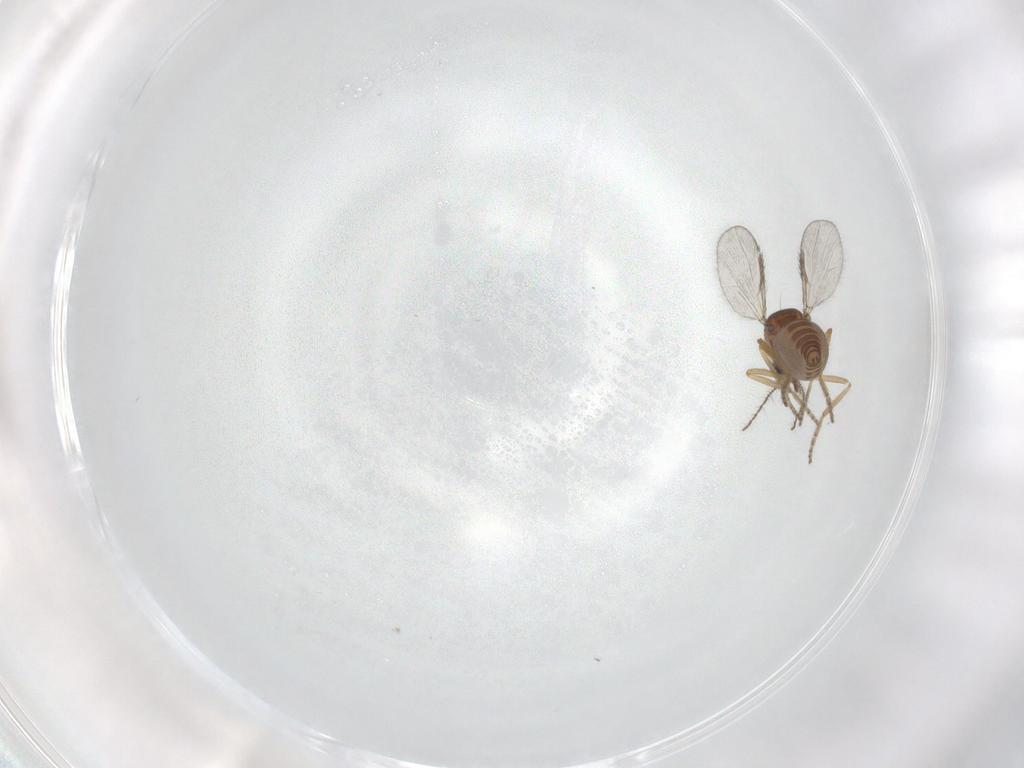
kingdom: Animalia
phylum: Arthropoda
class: Insecta
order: Diptera
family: Ceratopogonidae
